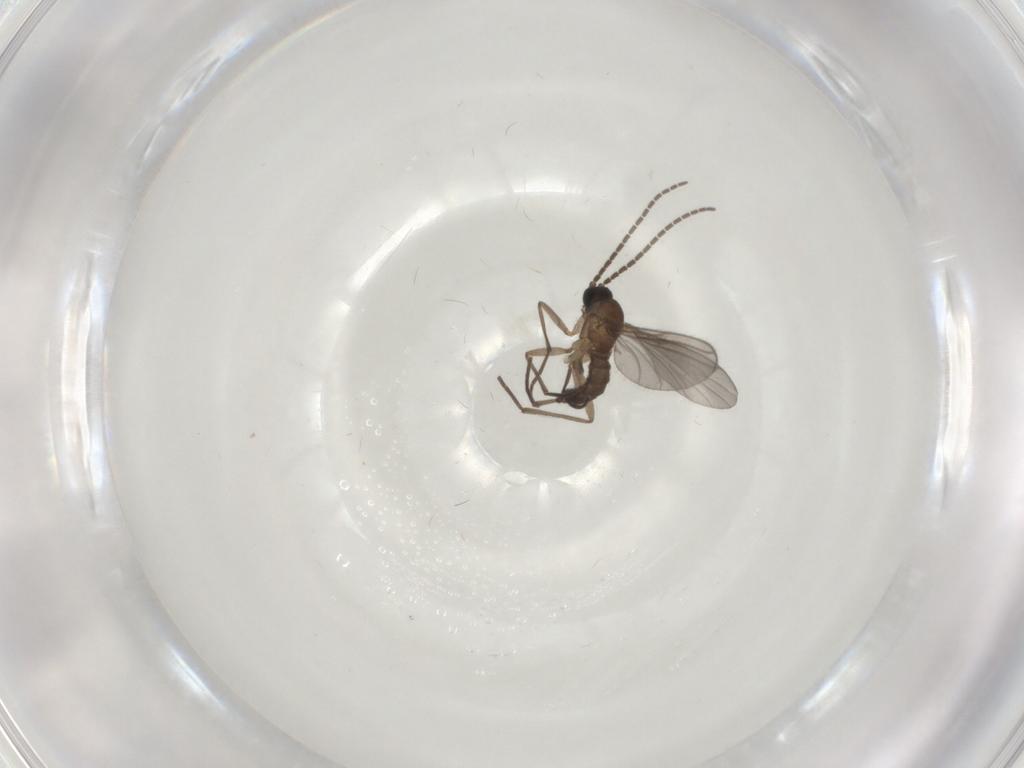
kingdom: Animalia
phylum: Arthropoda
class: Insecta
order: Diptera
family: Sciaridae
